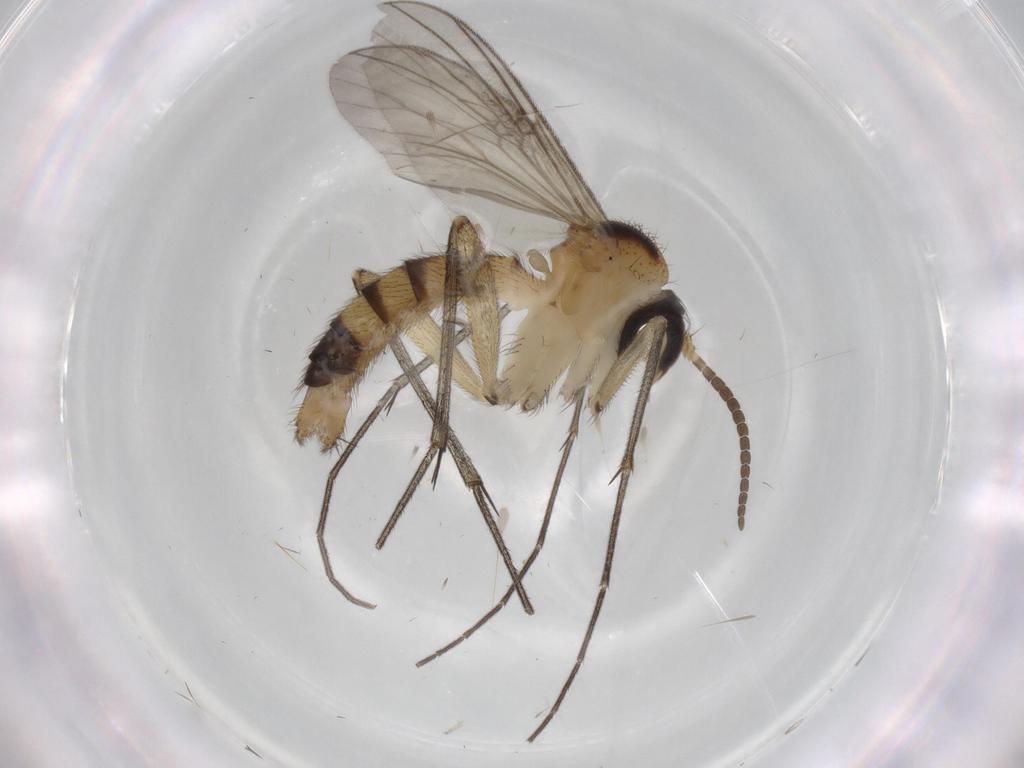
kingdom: Animalia
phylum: Arthropoda
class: Insecta
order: Diptera
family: Mycetophilidae
